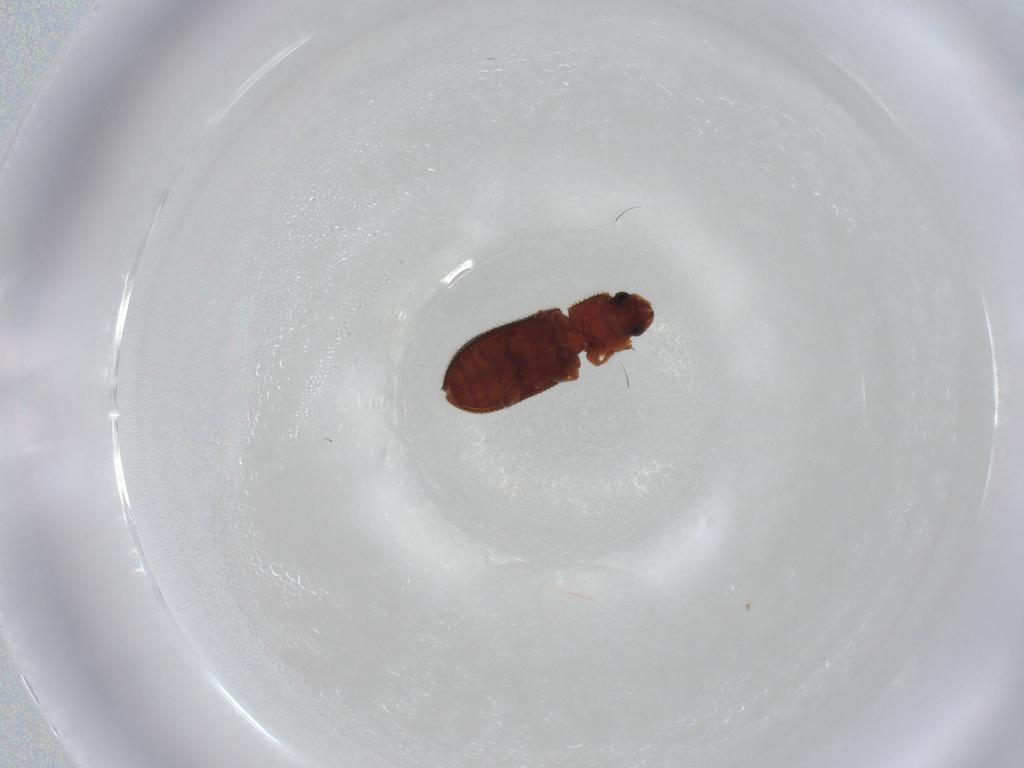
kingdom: Animalia
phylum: Arthropoda
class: Insecta
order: Coleoptera
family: Zopheridae
